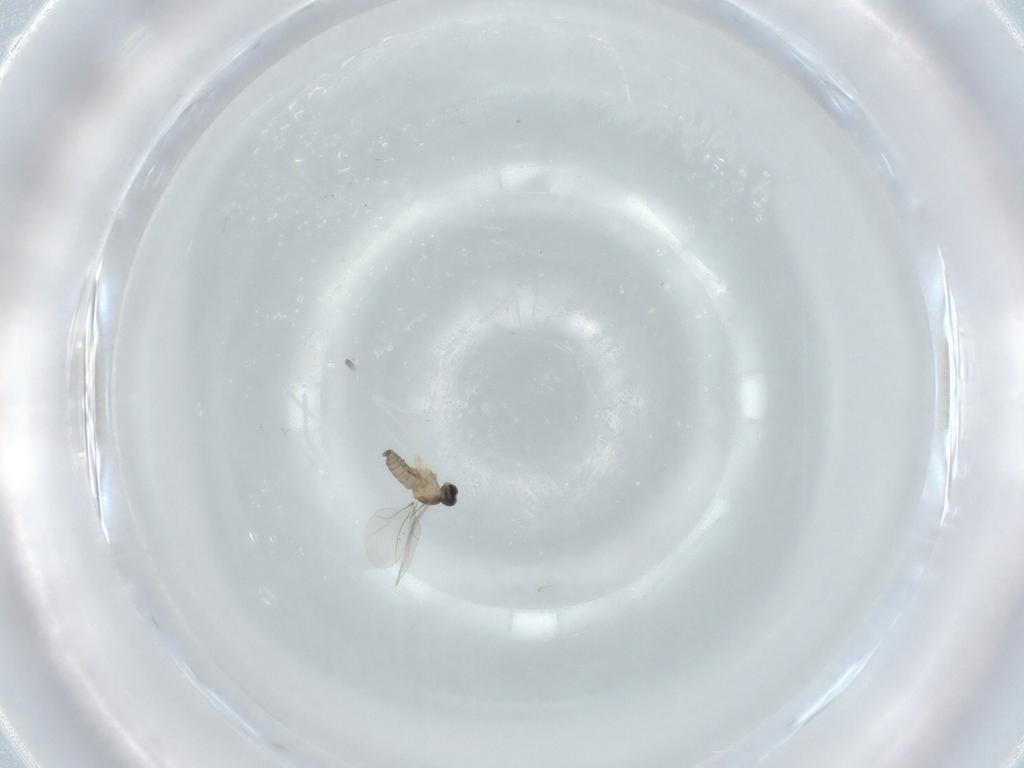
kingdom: Animalia
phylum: Arthropoda
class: Insecta
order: Diptera
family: Cecidomyiidae
